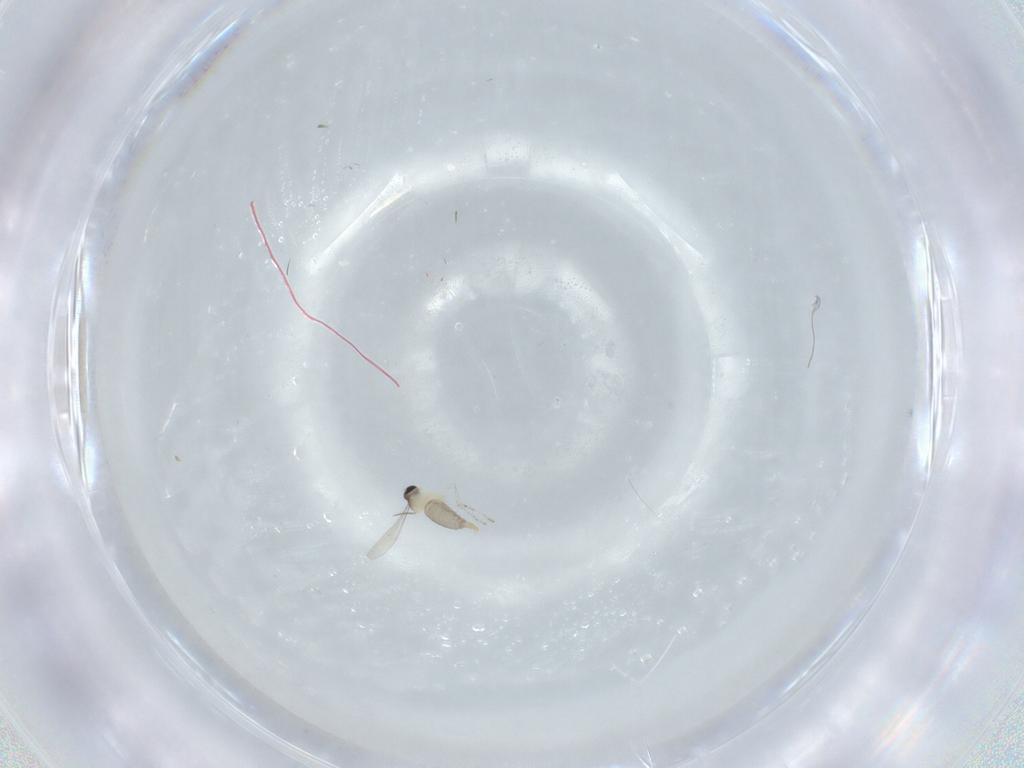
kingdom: Animalia
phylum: Arthropoda
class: Insecta
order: Diptera
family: Cecidomyiidae
